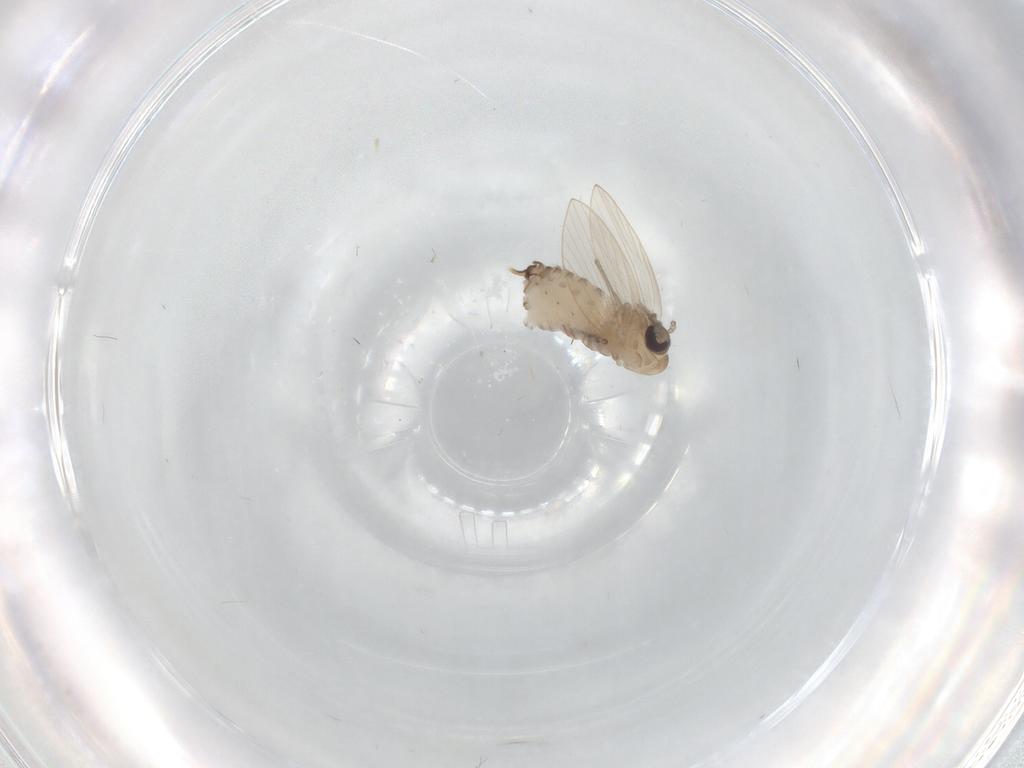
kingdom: Animalia
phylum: Arthropoda
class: Insecta
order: Diptera
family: Psychodidae
